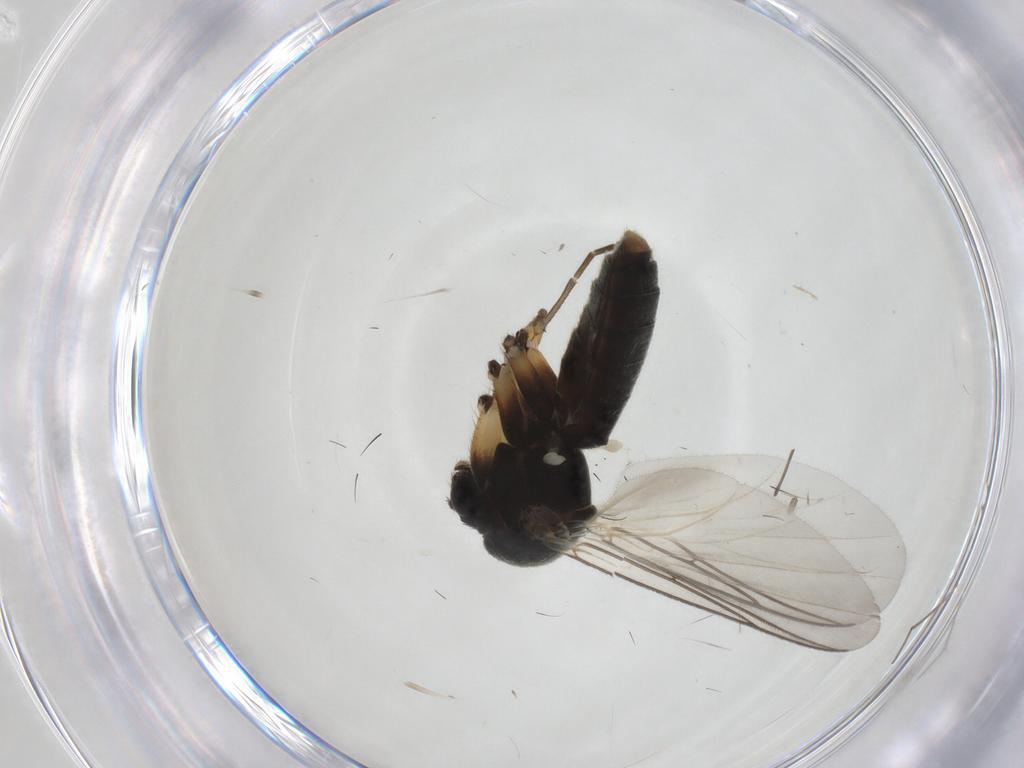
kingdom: Animalia
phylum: Arthropoda
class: Insecta
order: Diptera
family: Mycetophilidae
